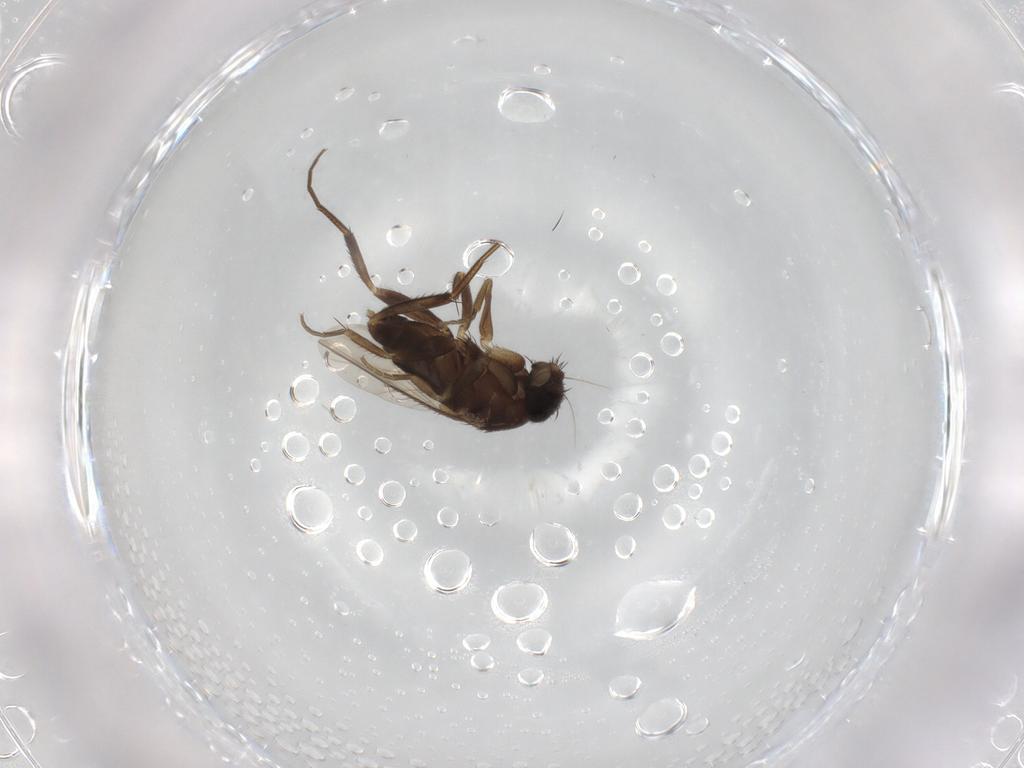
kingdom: Animalia
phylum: Arthropoda
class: Insecta
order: Diptera
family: Phoridae
